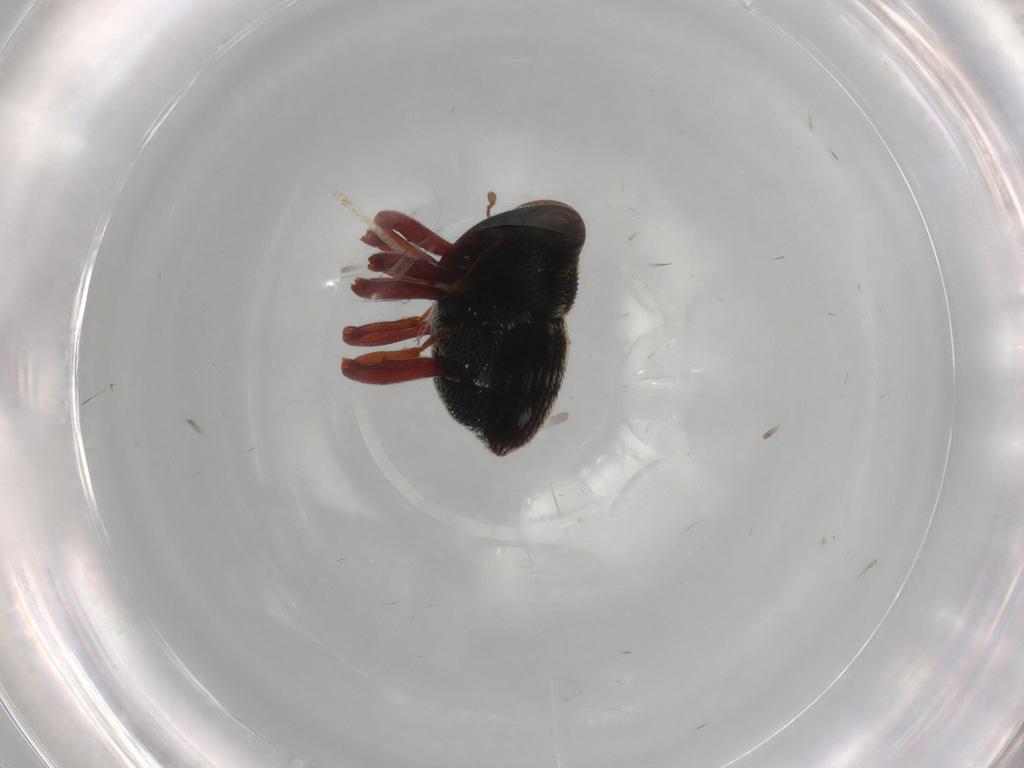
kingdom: Animalia
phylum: Arthropoda
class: Insecta
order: Coleoptera
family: Curculionidae
